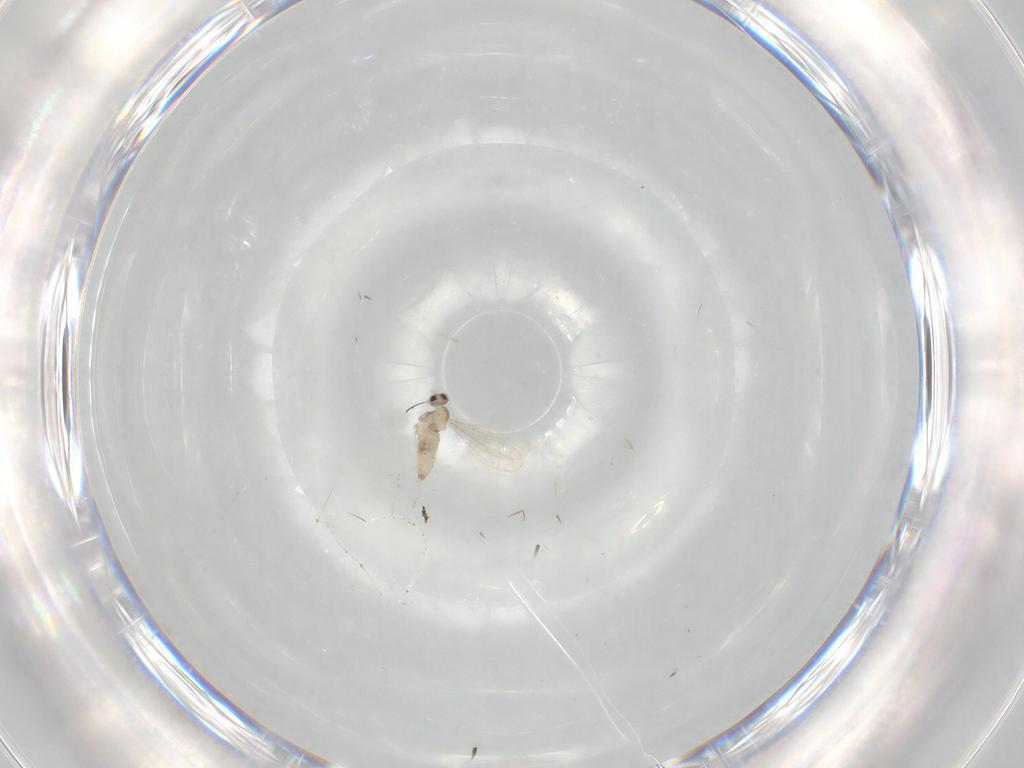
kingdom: Animalia
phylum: Arthropoda
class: Insecta
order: Diptera
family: Cecidomyiidae
